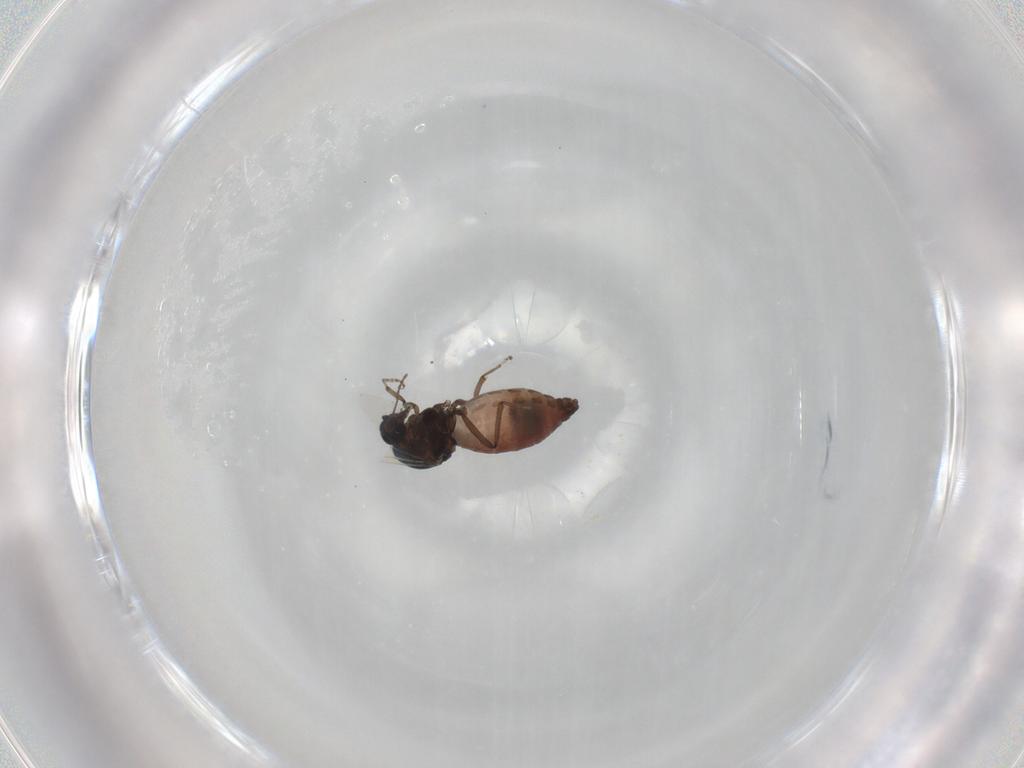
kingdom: Animalia
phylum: Arthropoda
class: Insecta
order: Diptera
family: Ceratopogonidae
